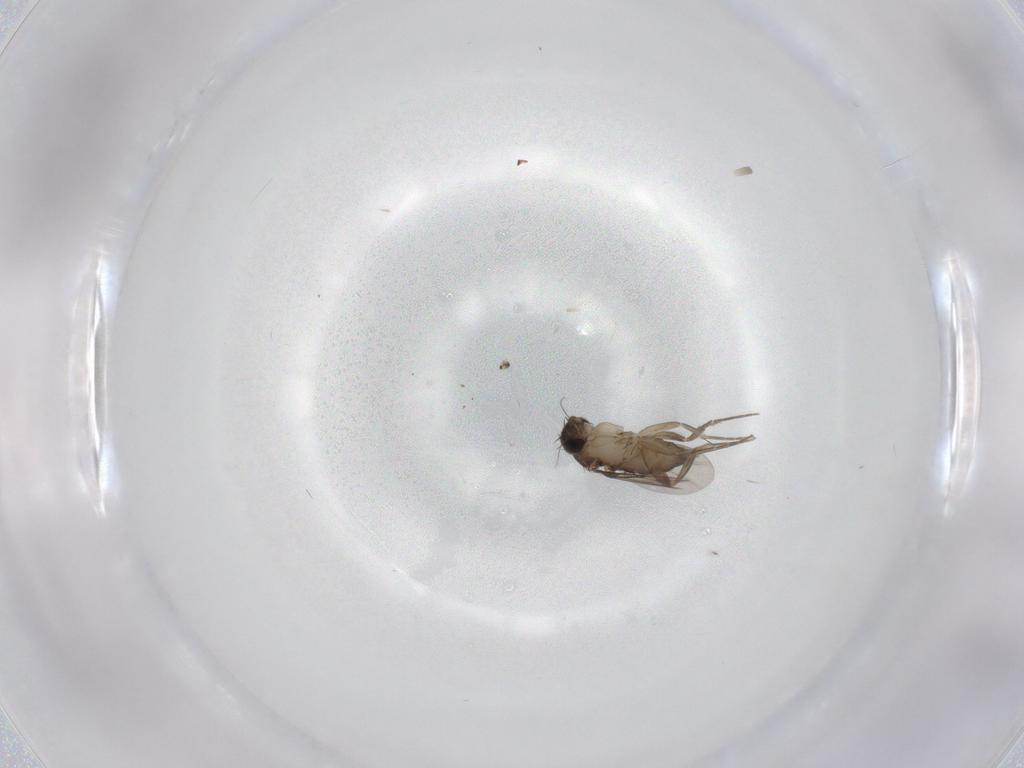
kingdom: Animalia
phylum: Arthropoda
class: Insecta
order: Diptera
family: Phoridae
